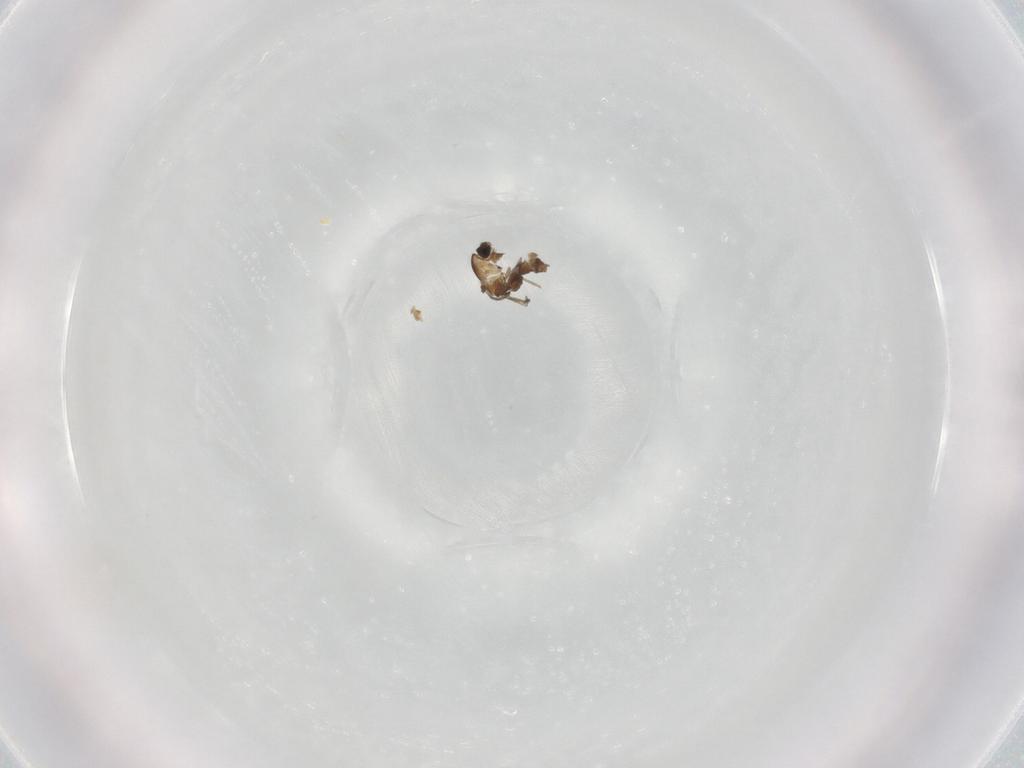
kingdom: Animalia
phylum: Arthropoda
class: Insecta
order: Diptera
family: Chironomidae
